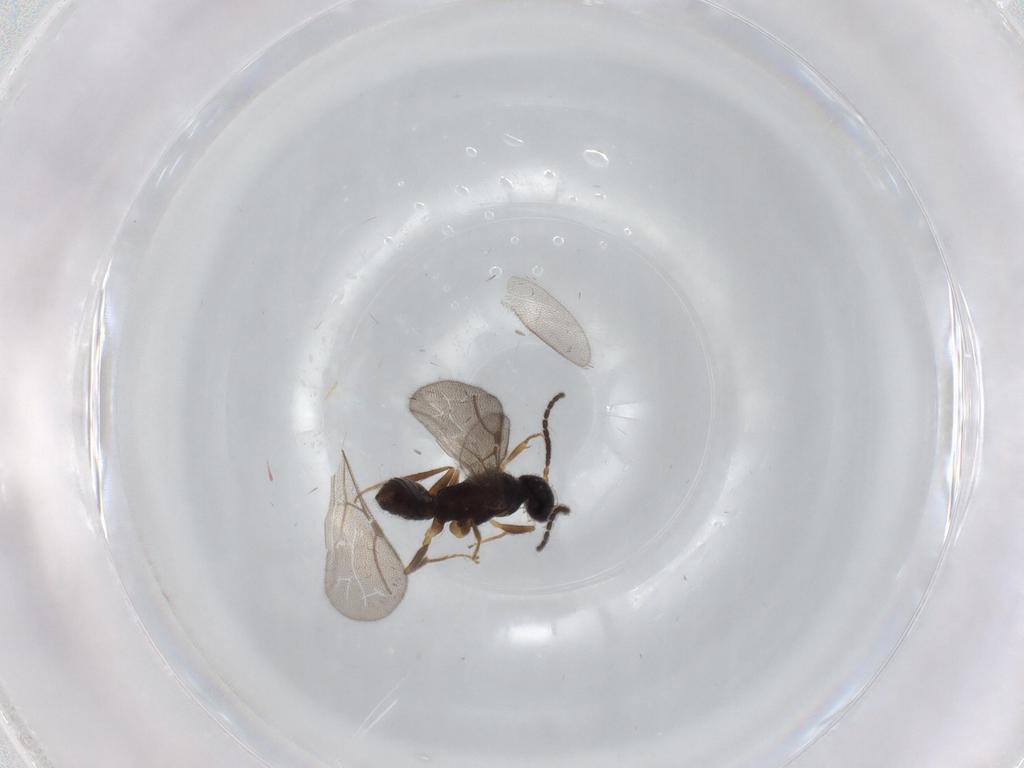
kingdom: Animalia
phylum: Arthropoda
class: Insecta
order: Hymenoptera
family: Bethylidae
